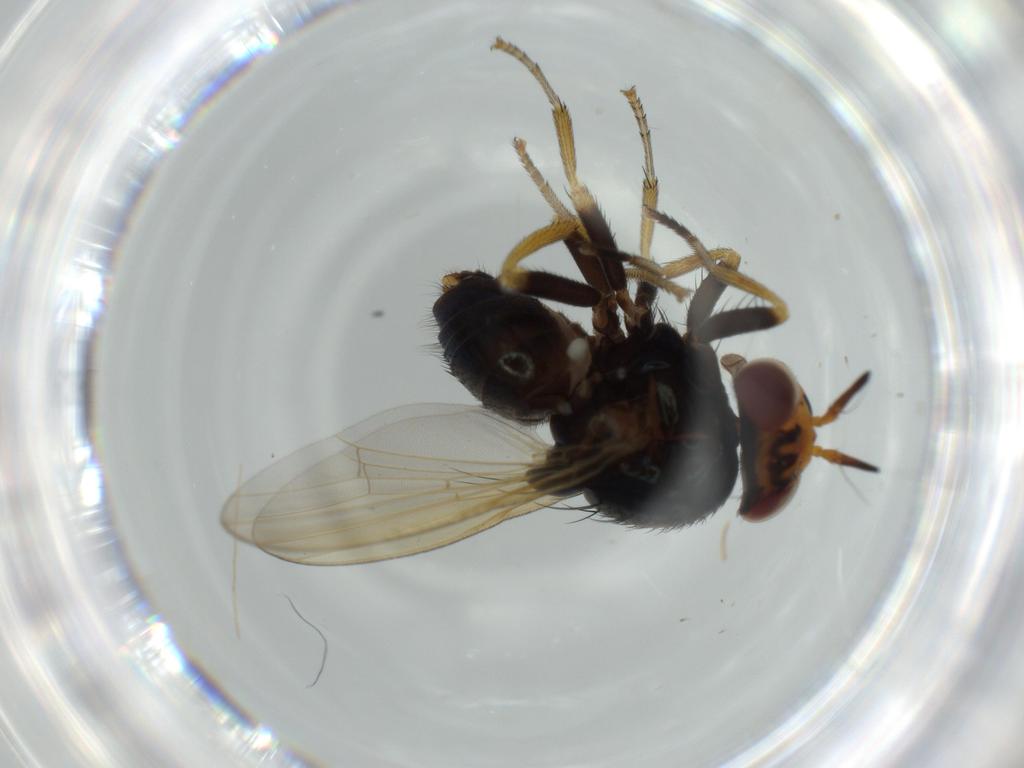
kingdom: Animalia
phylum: Arthropoda
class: Insecta
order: Diptera
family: Lauxaniidae
